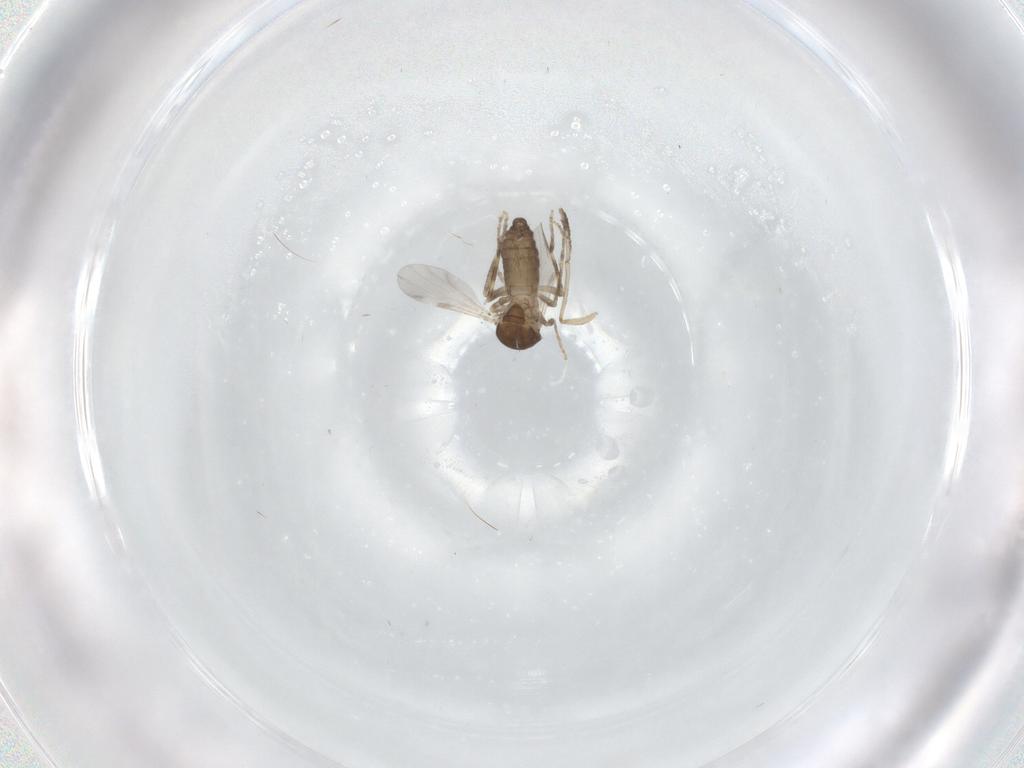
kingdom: Animalia
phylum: Arthropoda
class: Insecta
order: Diptera
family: Ceratopogonidae
